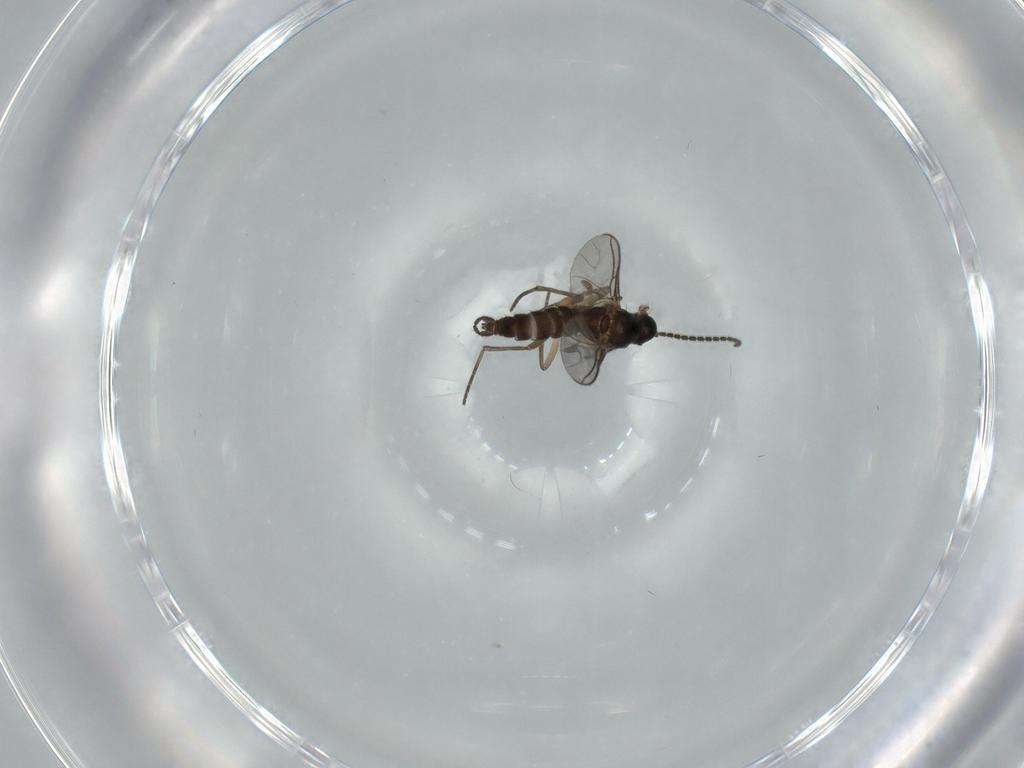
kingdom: Animalia
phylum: Arthropoda
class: Insecta
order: Diptera
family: Sciaridae
